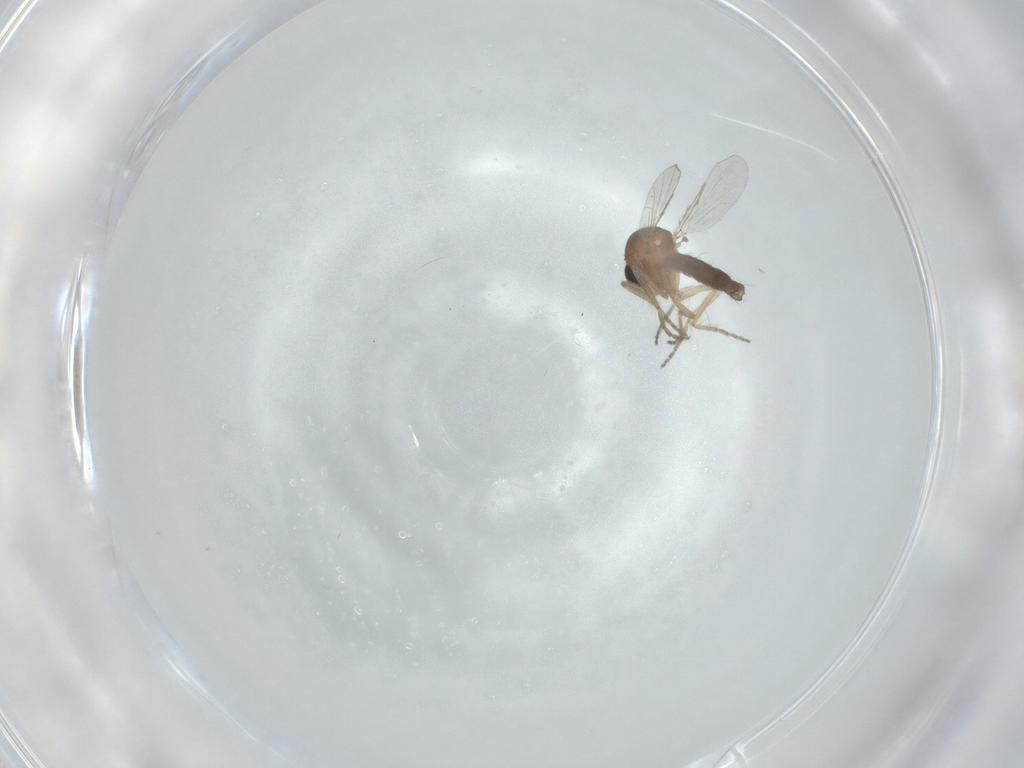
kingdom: Animalia
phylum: Arthropoda
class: Insecta
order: Diptera
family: Ceratopogonidae
